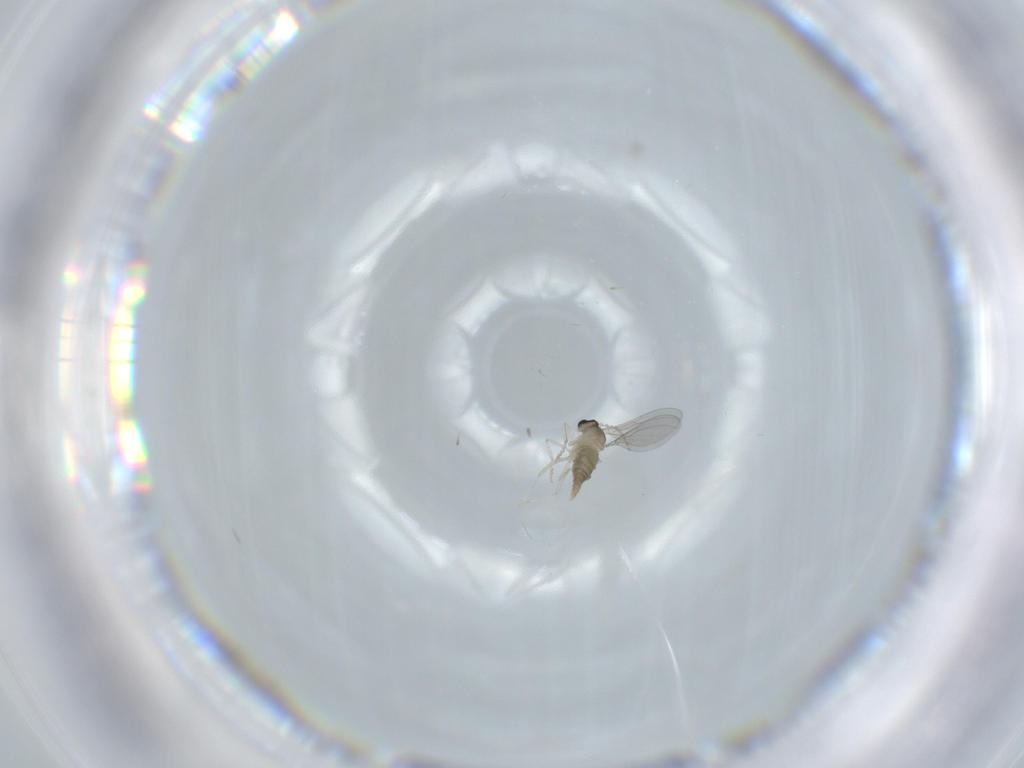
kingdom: Animalia
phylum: Arthropoda
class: Insecta
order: Diptera
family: Cecidomyiidae
